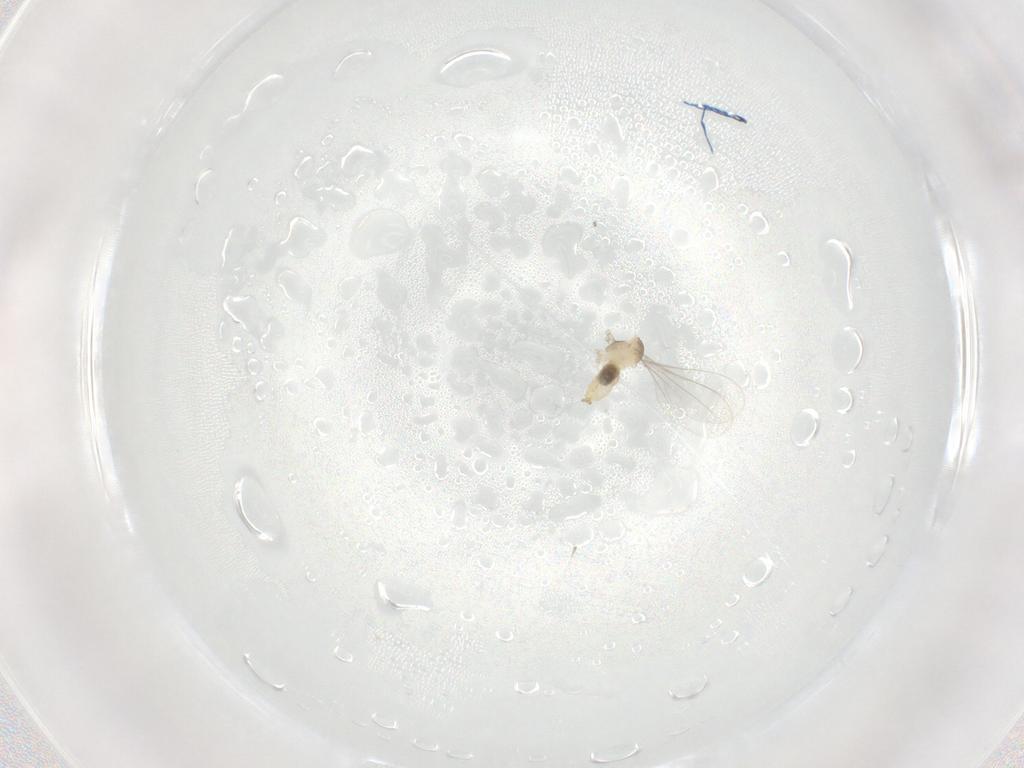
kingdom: Animalia
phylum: Arthropoda
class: Insecta
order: Diptera
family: Cecidomyiidae
